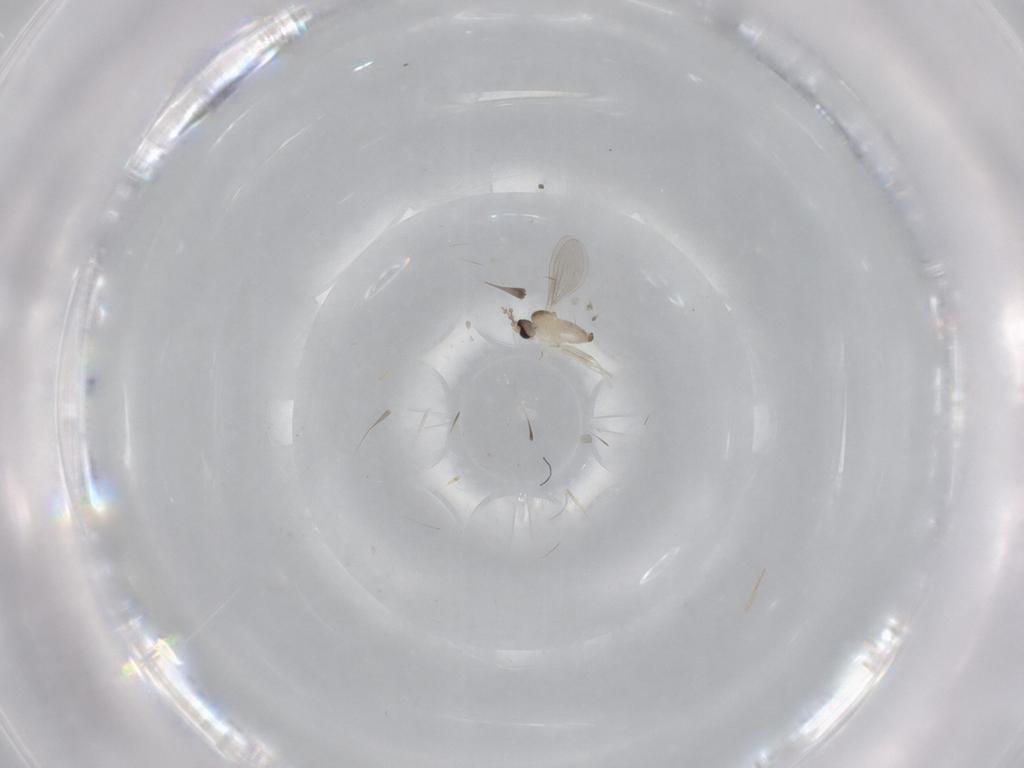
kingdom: Animalia
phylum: Arthropoda
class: Insecta
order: Diptera
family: Cecidomyiidae
